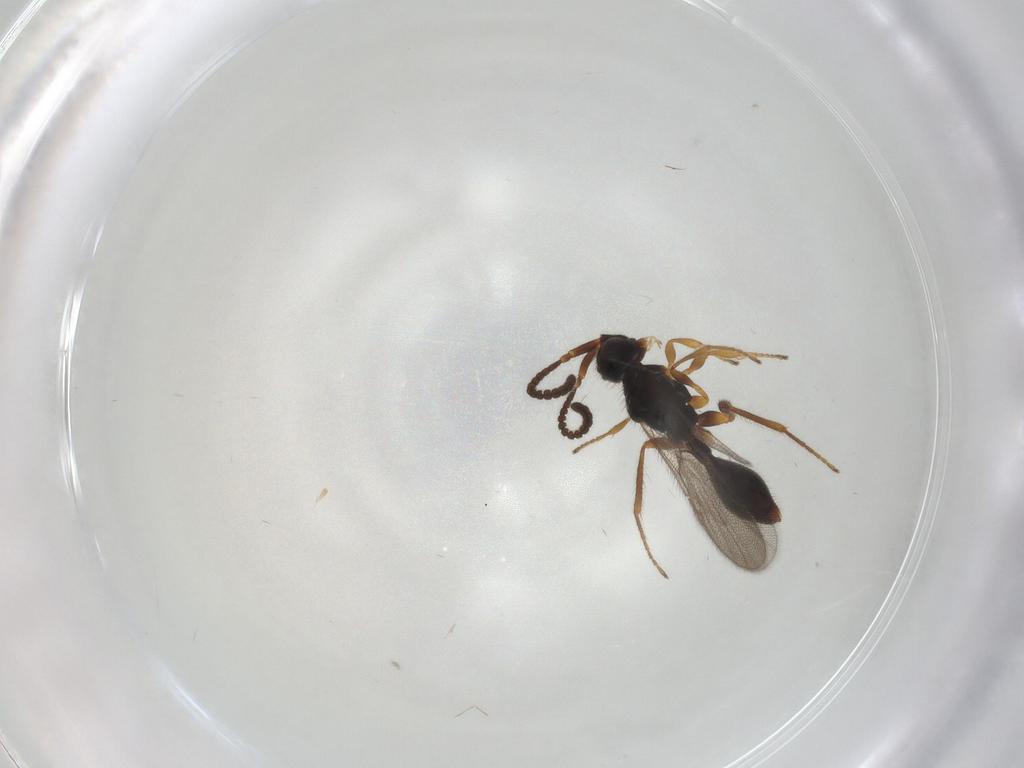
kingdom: Animalia
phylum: Arthropoda
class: Insecta
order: Hymenoptera
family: Diapriidae
